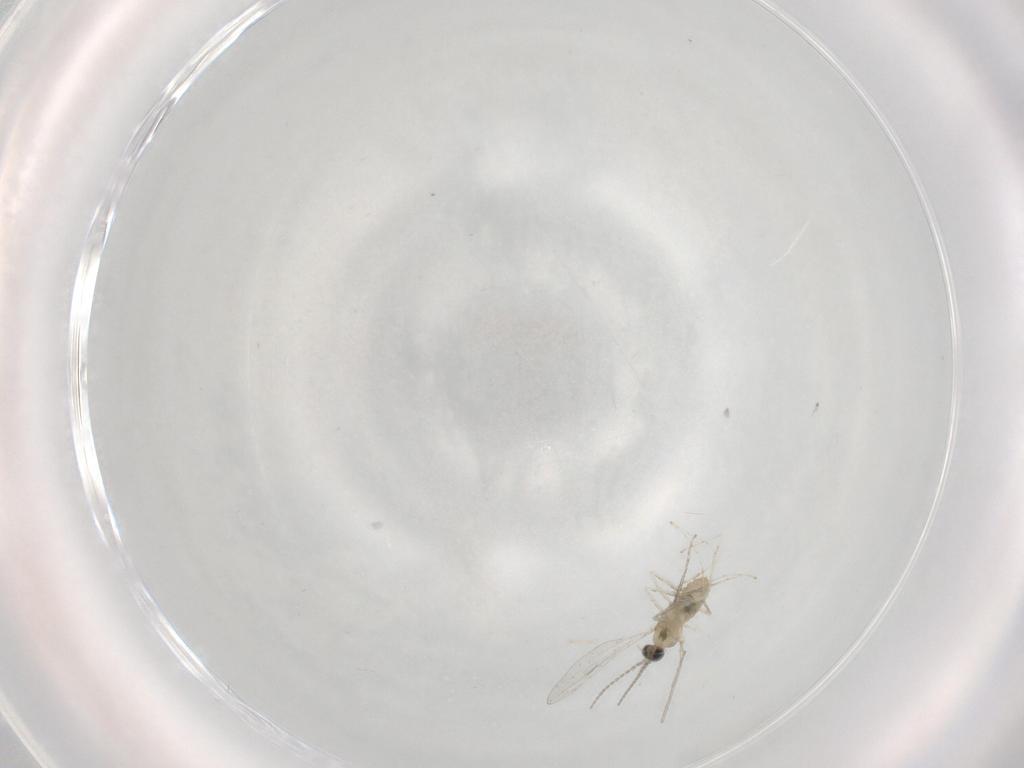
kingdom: Animalia
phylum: Arthropoda
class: Insecta
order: Diptera
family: Cecidomyiidae
